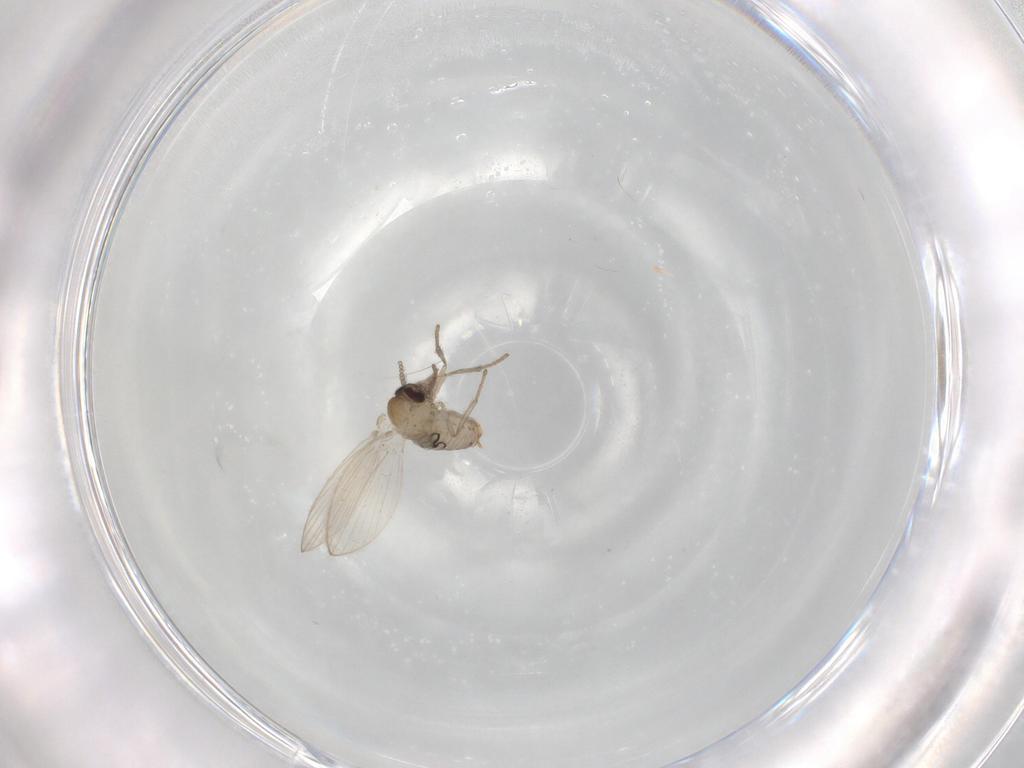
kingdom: Animalia
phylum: Arthropoda
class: Insecta
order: Diptera
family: Psychodidae
